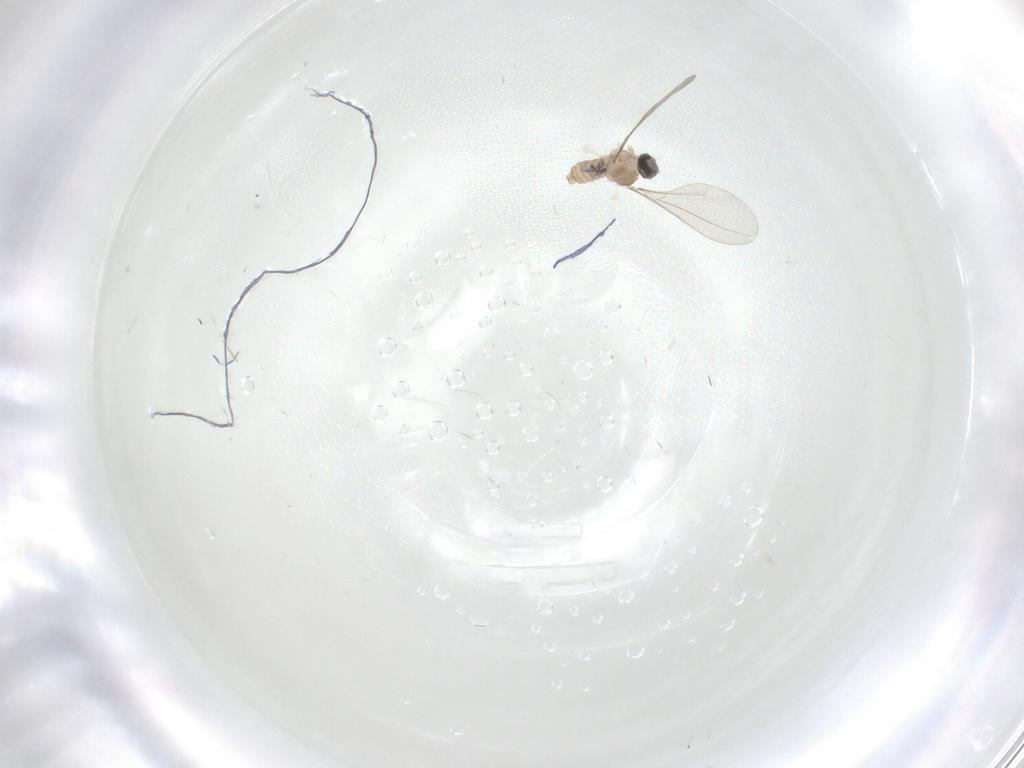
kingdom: Animalia
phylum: Arthropoda
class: Insecta
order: Diptera
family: Cecidomyiidae
